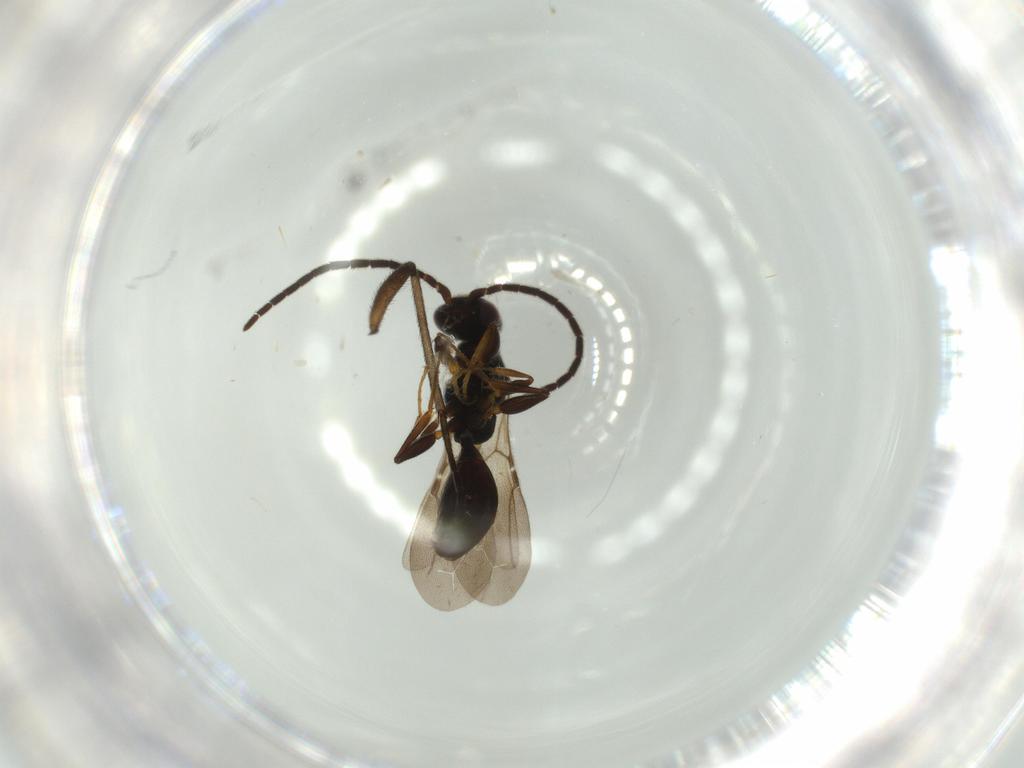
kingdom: Animalia
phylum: Arthropoda
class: Insecta
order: Hymenoptera
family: Bethylidae
